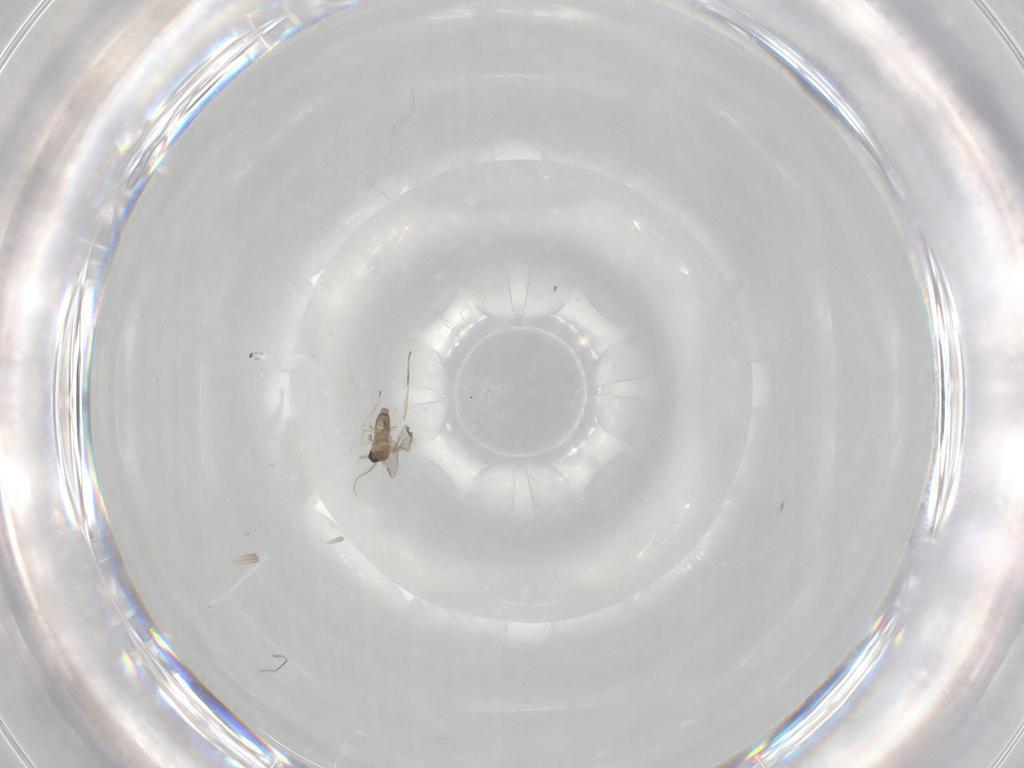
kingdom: Animalia
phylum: Arthropoda
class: Insecta
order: Diptera
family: Cecidomyiidae
